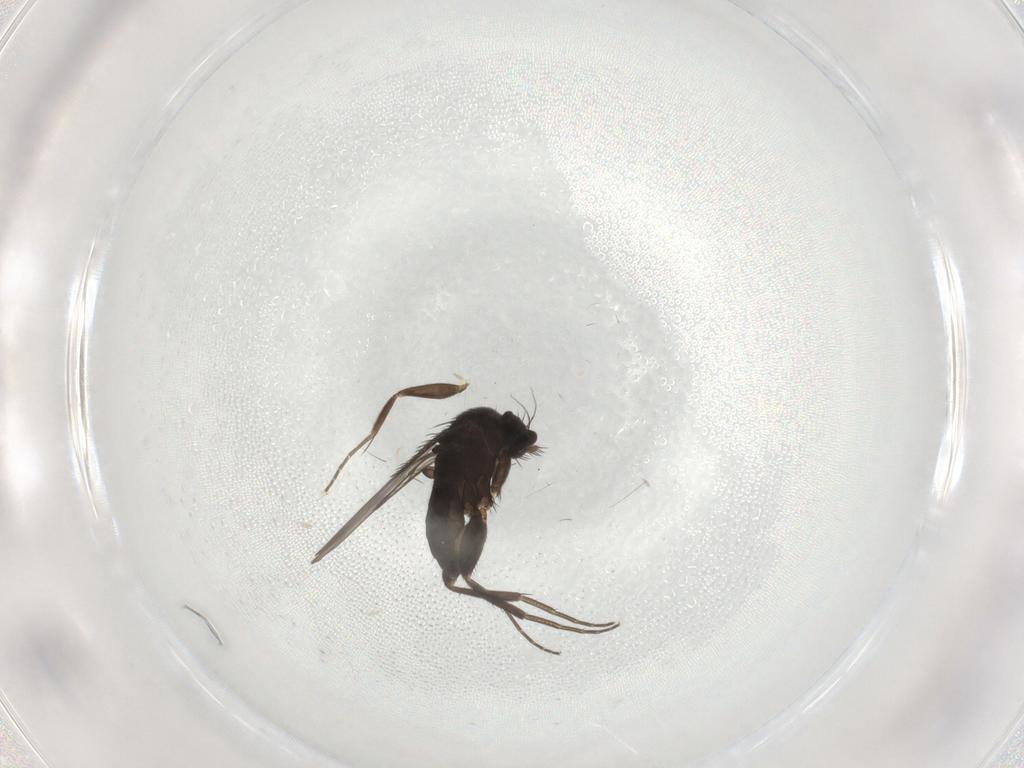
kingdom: Animalia
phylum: Arthropoda
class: Insecta
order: Diptera
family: Phoridae
